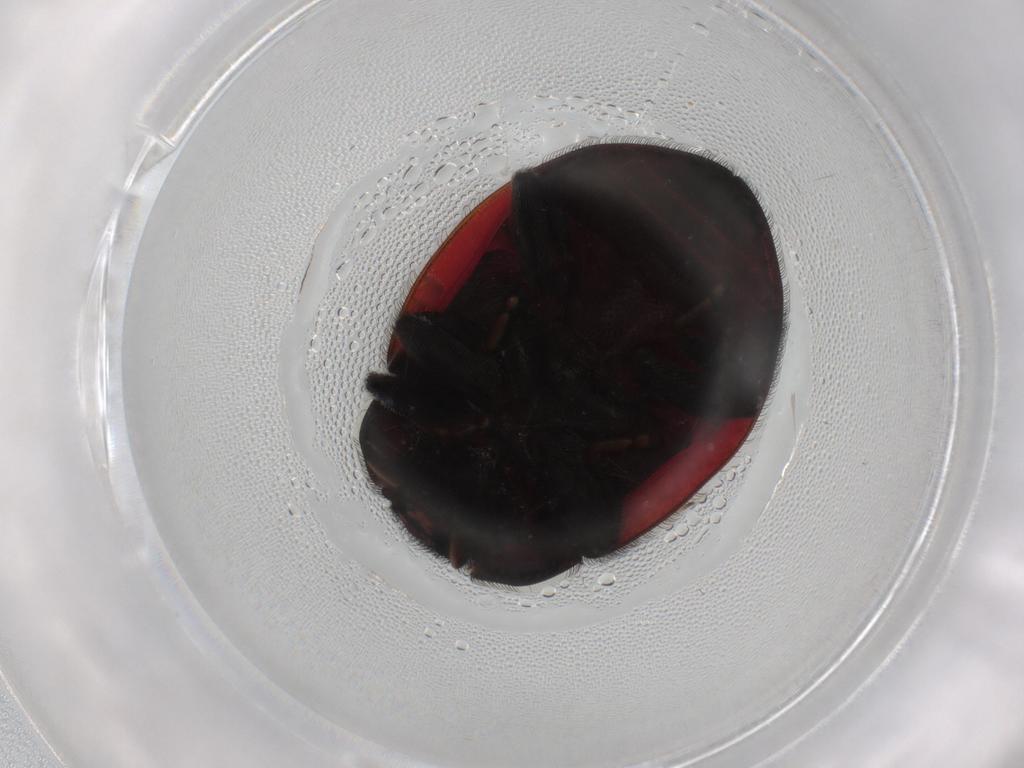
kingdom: Animalia
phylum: Arthropoda
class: Insecta
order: Coleoptera
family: Coccinellidae
